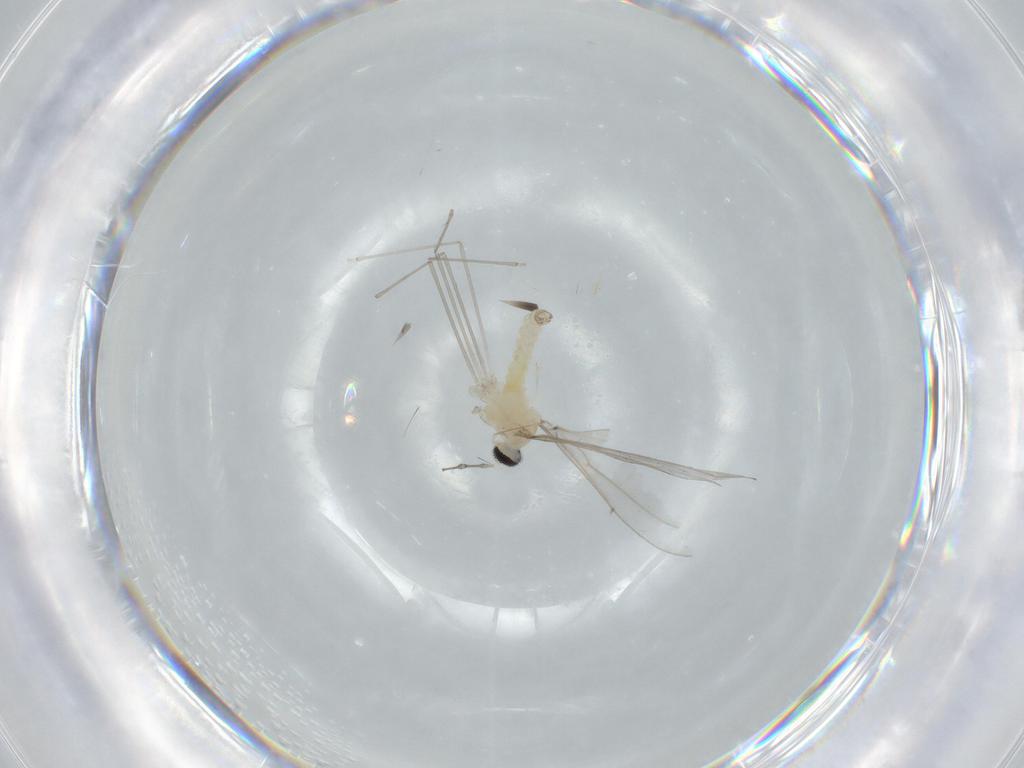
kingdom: Animalia
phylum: Arthropoda
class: Insecta
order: Diptera
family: Cecidomyiidae
